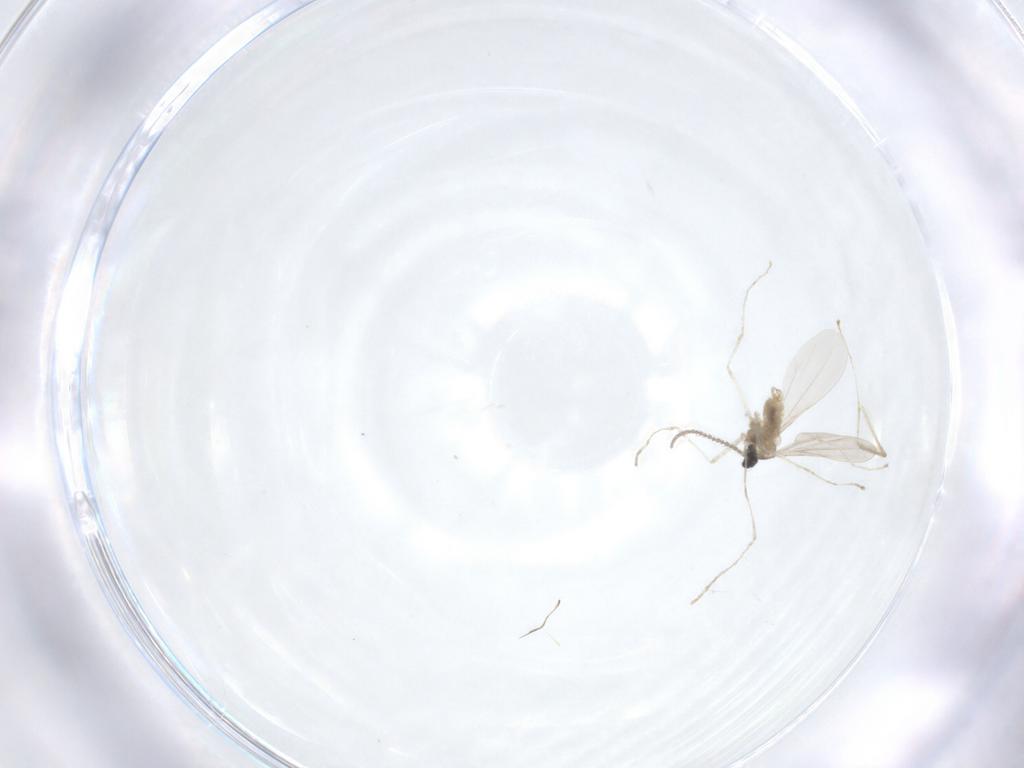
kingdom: Animalia
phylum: Arthropoda
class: Insecta
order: Diptera
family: Cecidomyiidae
